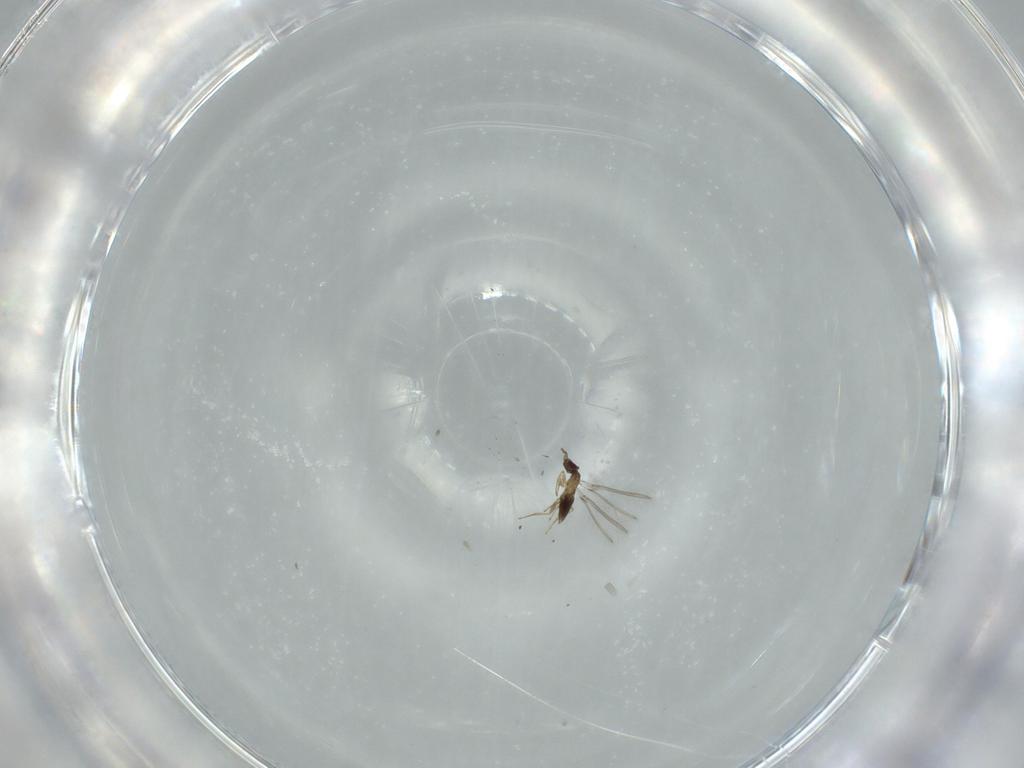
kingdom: Animalia
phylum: Arthropoda
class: Insecta
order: Hymenoptera
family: Mymaridae
